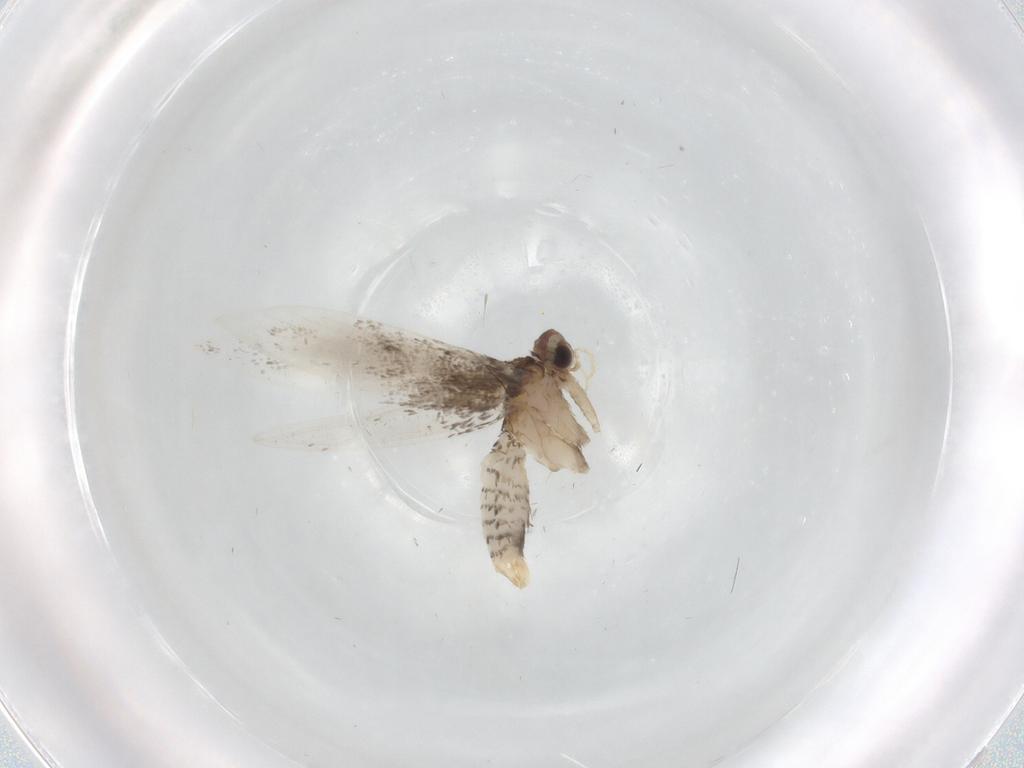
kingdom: Animalia
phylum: Arthropoda
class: Insecta
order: Lepidoptera
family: Tineidae
